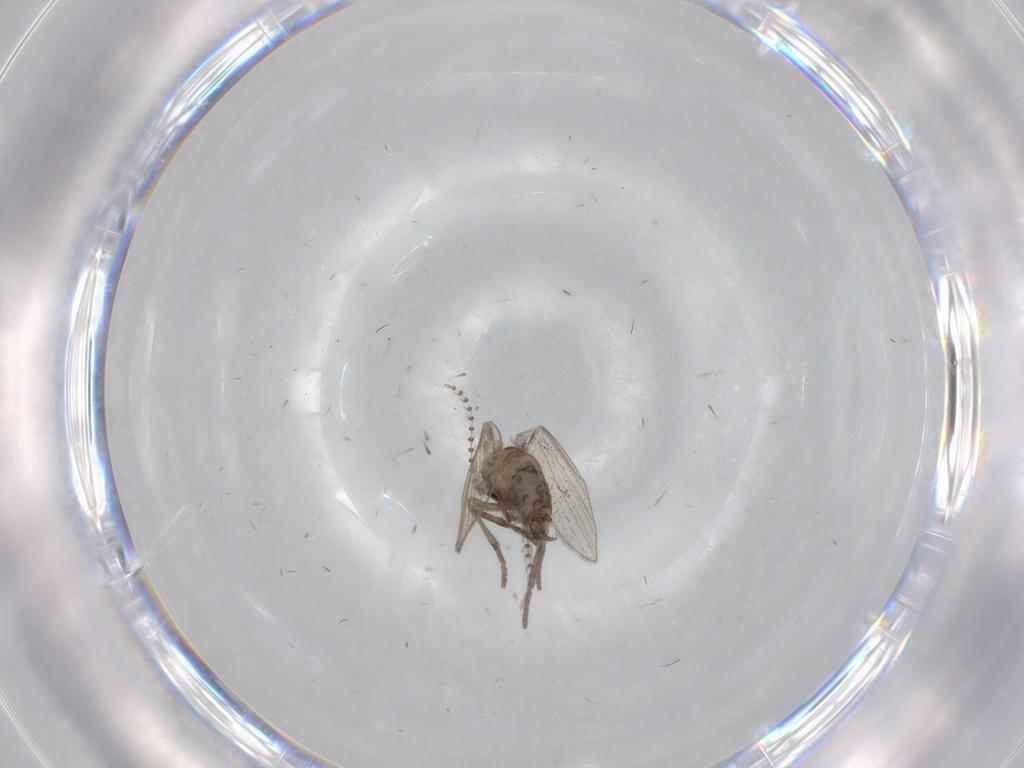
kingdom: Animalia
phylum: Arthropoda
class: Insecta
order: Diptera
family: Psychodidae
